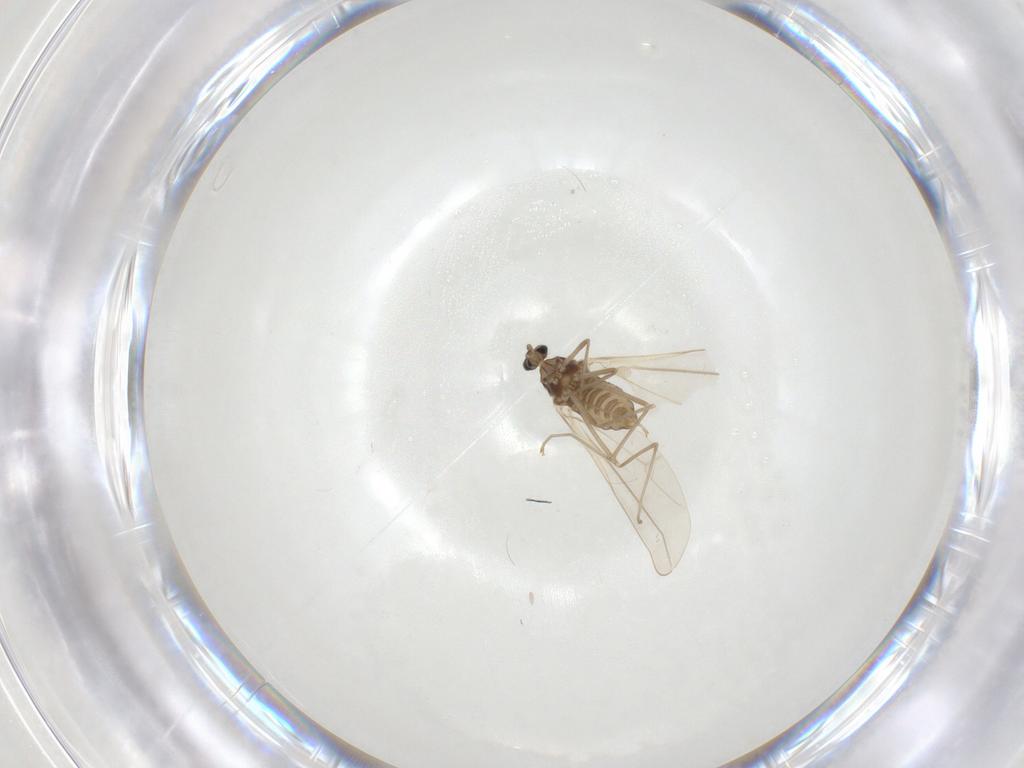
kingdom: Animalia
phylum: Arthropoda
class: Insecta
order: Diptera
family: Cecidomyiidae
